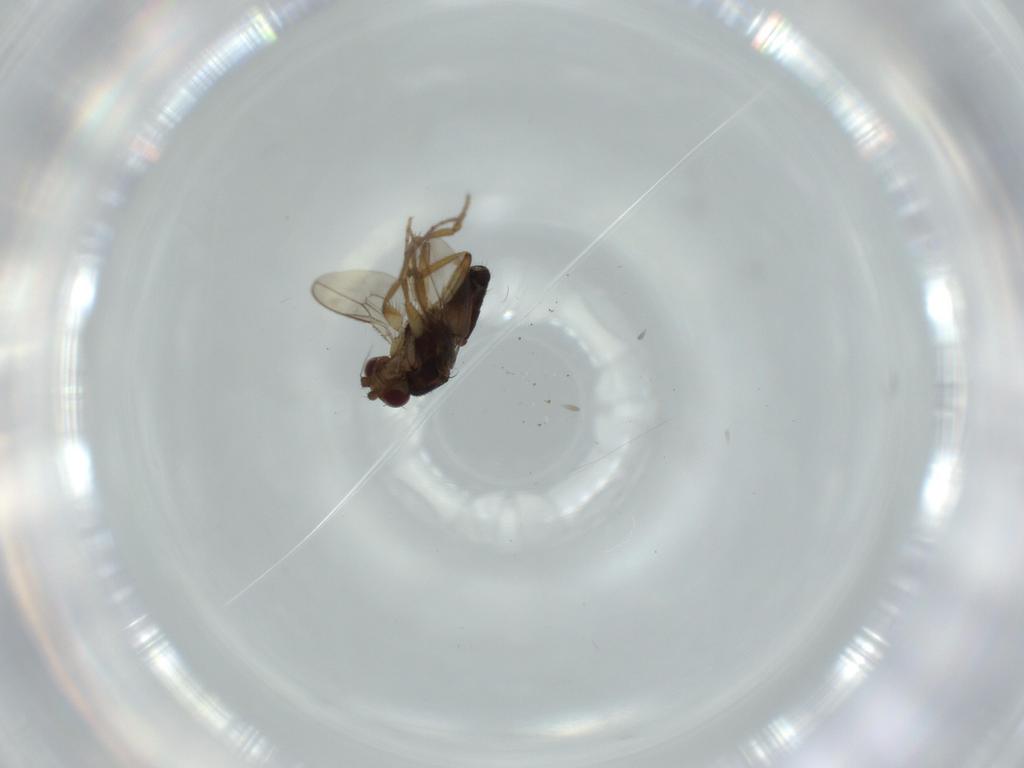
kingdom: Animalia
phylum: Arthropoda
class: Insecta
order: Diptera
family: Sphaeroceridae
